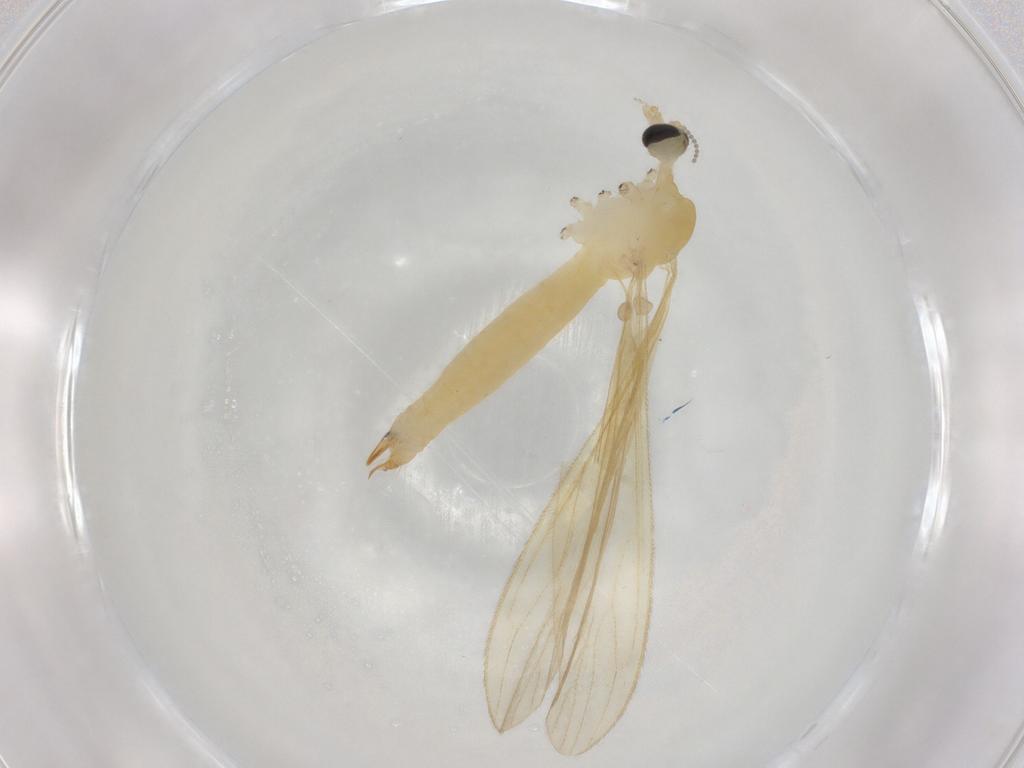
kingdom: Animalia
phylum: Arthropoda
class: Insecta
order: Diptera
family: Limoniidae
